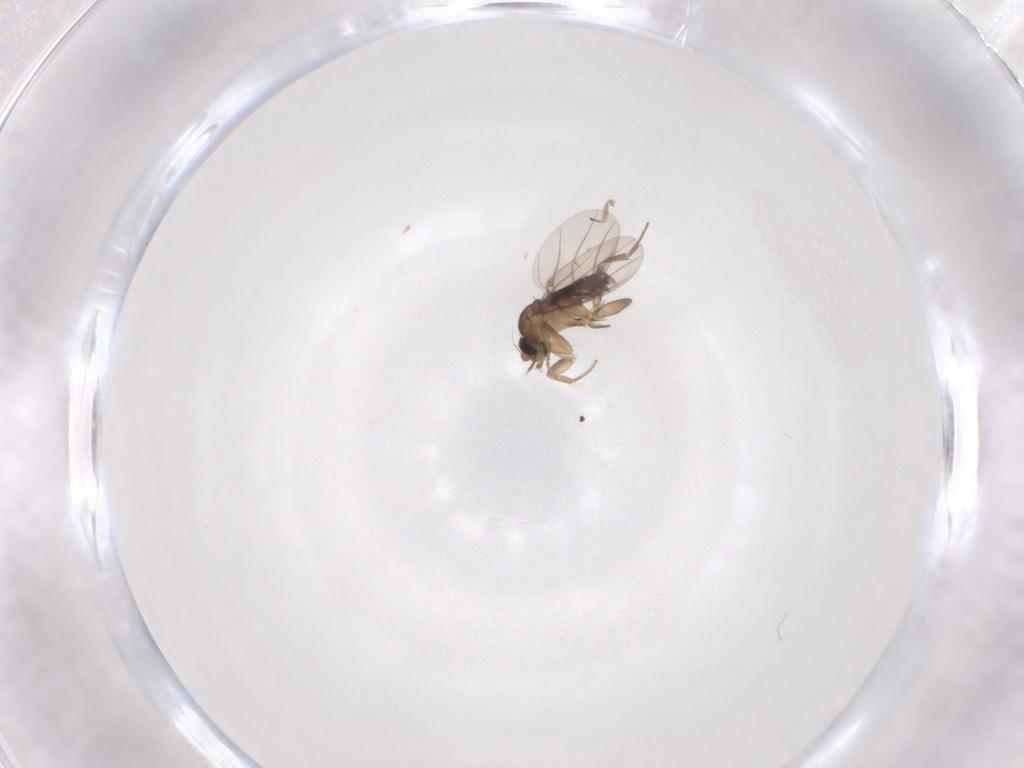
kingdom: Animalia
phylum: Arthropoda
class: Insecta
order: Diptera
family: Phoridae
